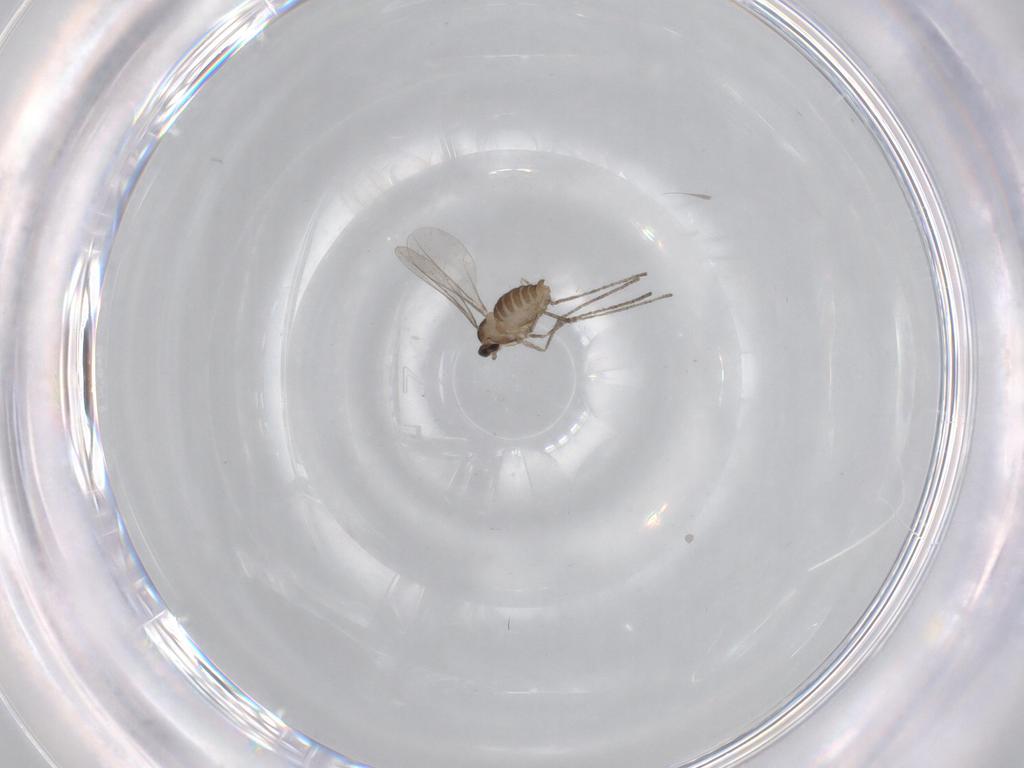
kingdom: Animalia
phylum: Arthropoda
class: Insecta
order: Diptera
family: Cecidomyiidae
